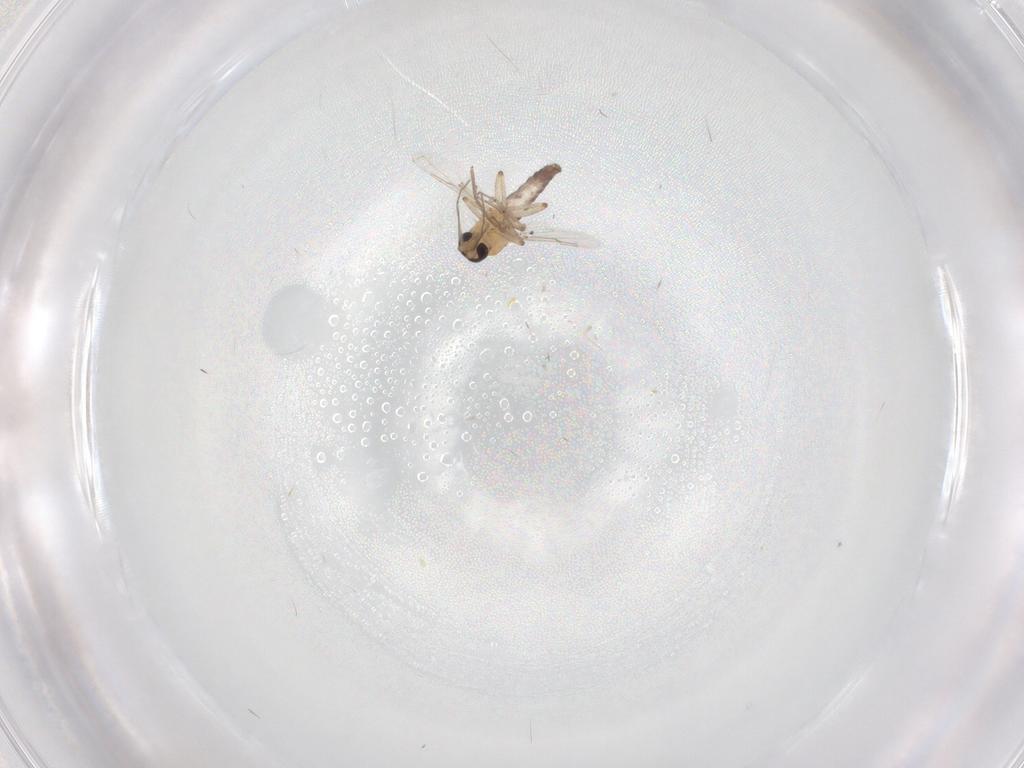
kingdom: Animalia
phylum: Arthropoda
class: Insecta
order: Diptera
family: Ceratopogonidae
